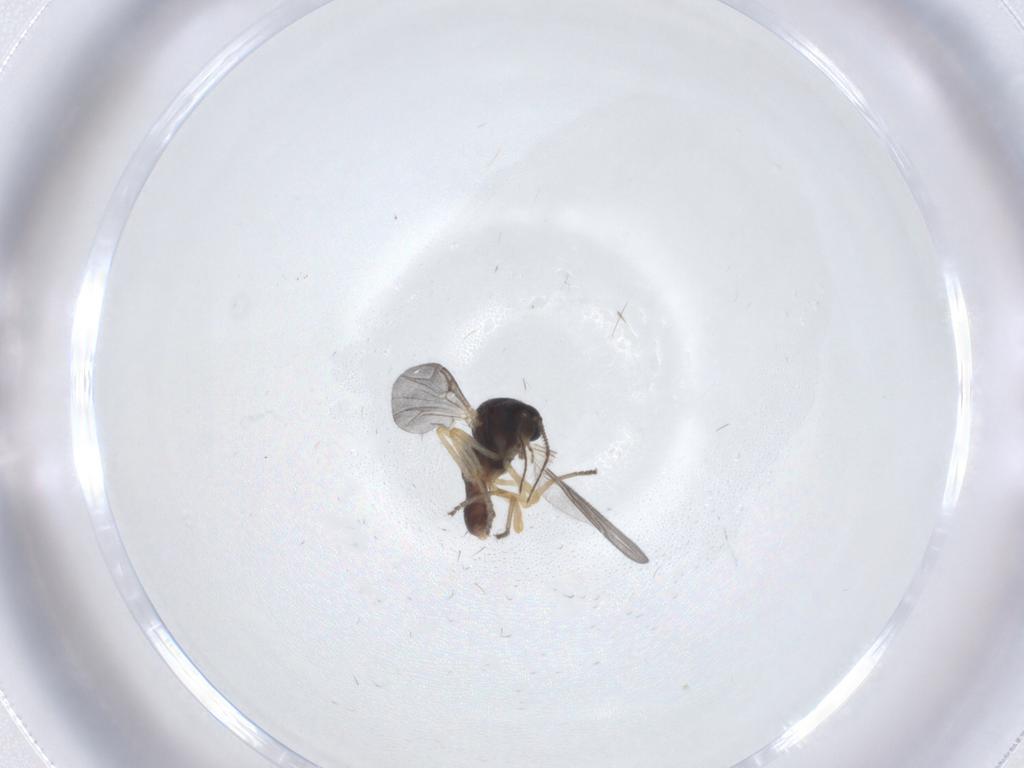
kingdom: Animalia
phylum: Arthropoda
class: Insecta
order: Diptera
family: Ceratopogonidae
